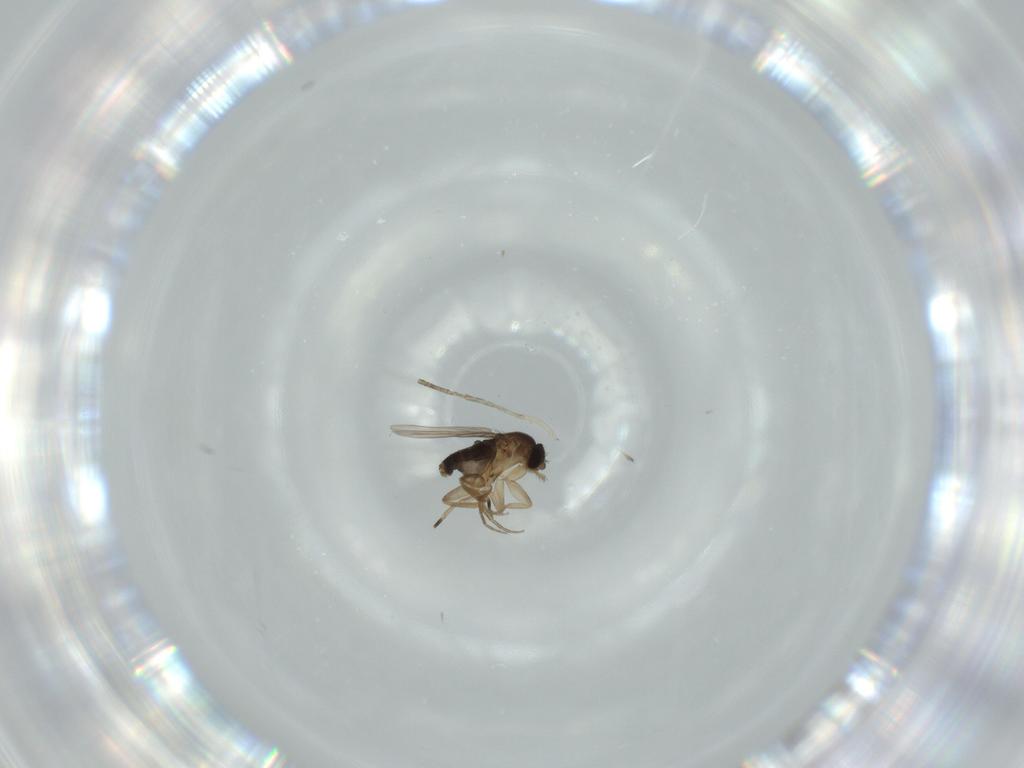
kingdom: Animalia
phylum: Arthropoda
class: Insecta
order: Diptera
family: Phoridae
